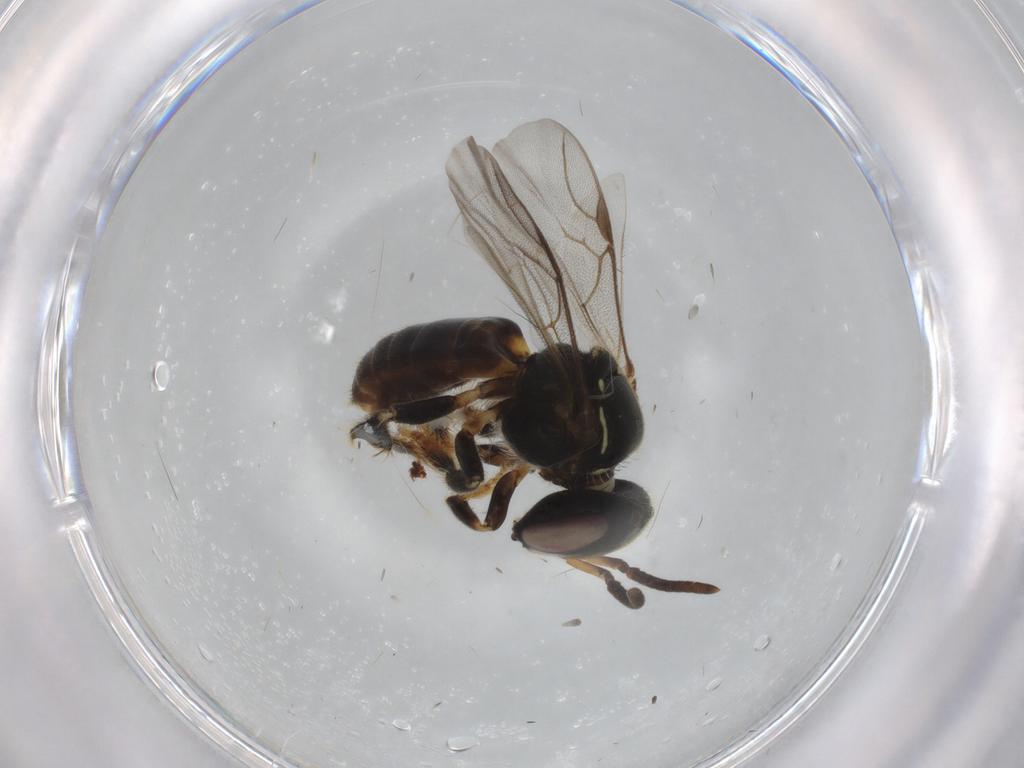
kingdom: Animalia
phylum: Arthropoda
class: Insecta
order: Hymenoptera
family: Apidae
